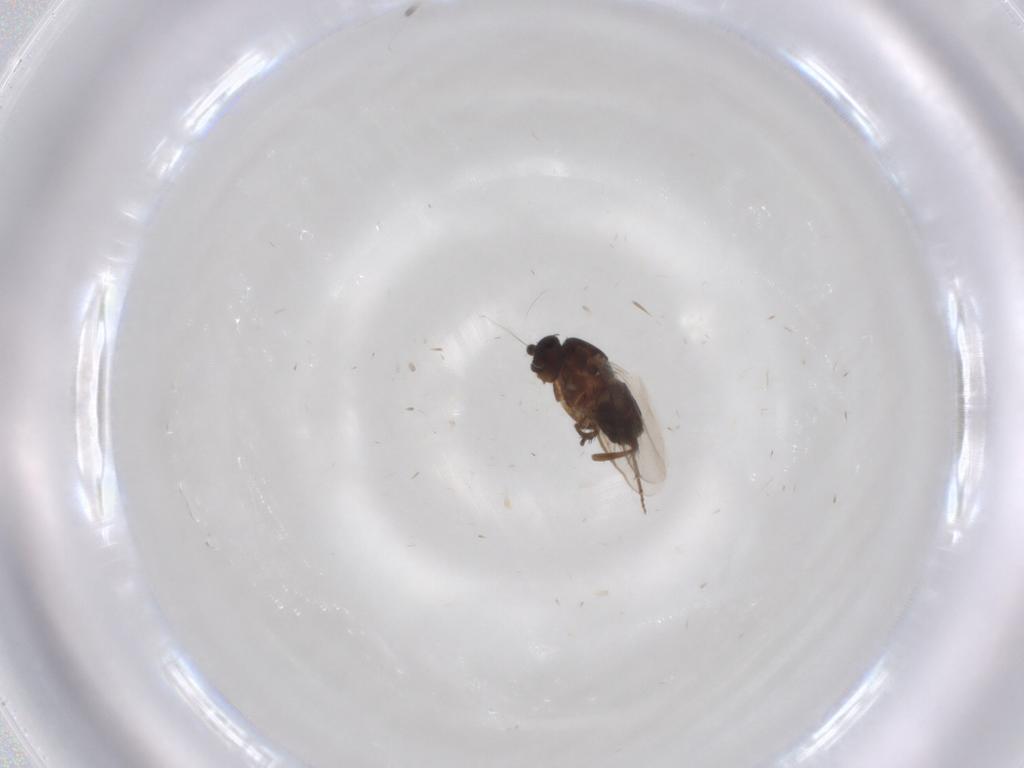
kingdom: Animalia
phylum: Arthropoda
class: Insecta
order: Diptera
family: Sphaeroceridae
